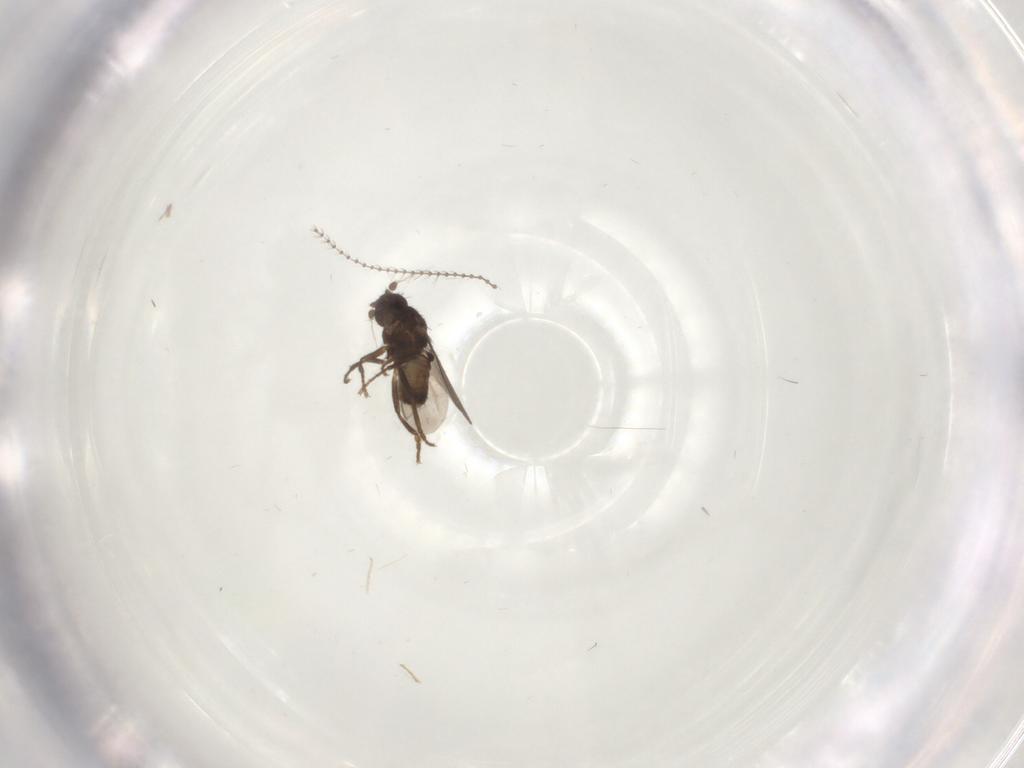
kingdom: Animalia
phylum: Arthropoda
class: Insecta
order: Diptera
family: Cecidomyiidae
